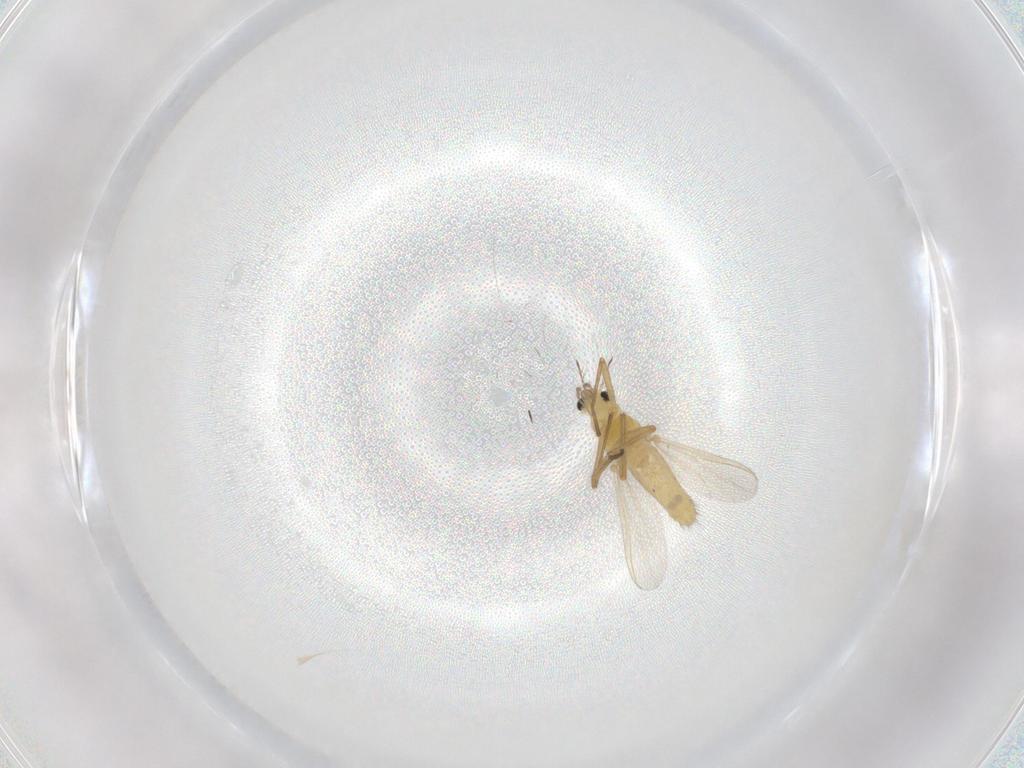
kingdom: Animalia
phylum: Arthropoda
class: Insecta
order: Diptera
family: Chironomidae
